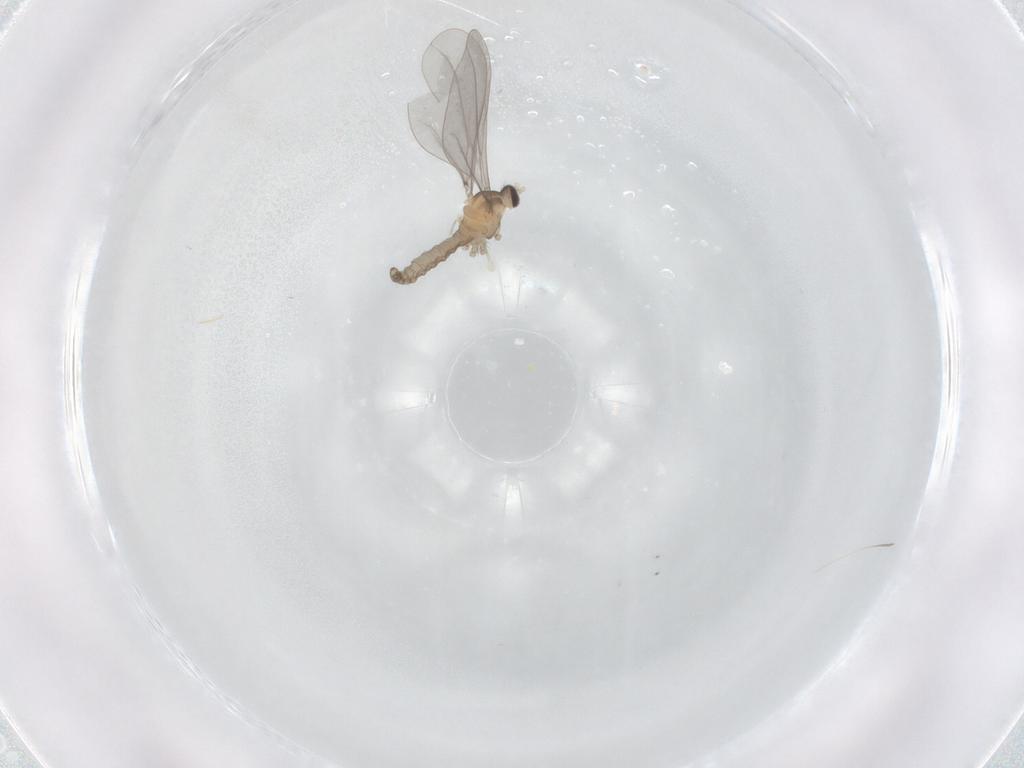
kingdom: Animalia
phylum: Arthropoda
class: Insecta
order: Diptera
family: Cecidomyiidae
